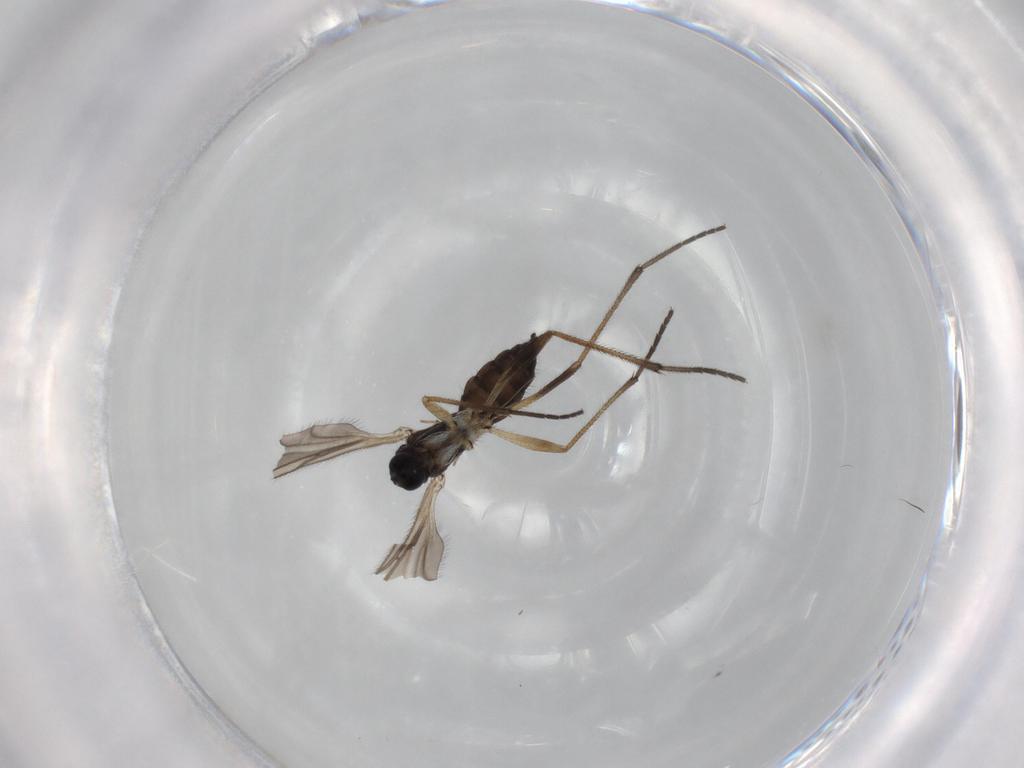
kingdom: Animalia
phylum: Arthropoda
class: Insecta
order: Diptera
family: Sciaridae
